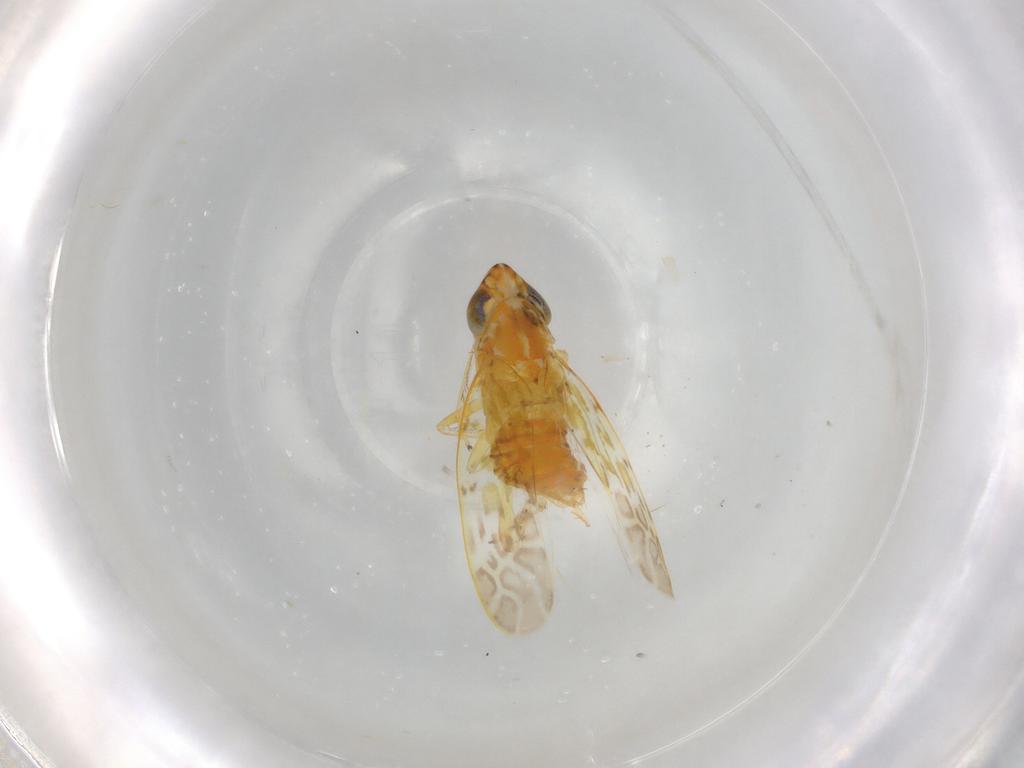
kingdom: Animalia
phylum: Arthropoda
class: Insecta
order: Hemiptera
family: Cicadellidae
